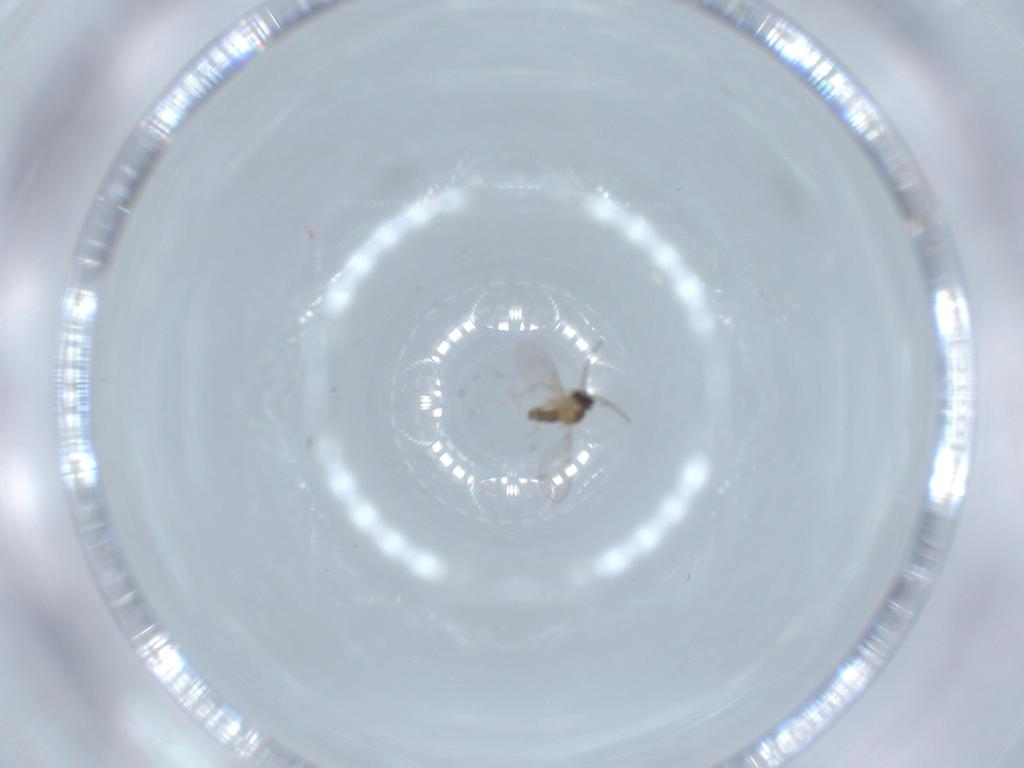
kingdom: Animalia
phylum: Arthropoda
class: Insecta
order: Diptera
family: Cecidomyiidae
